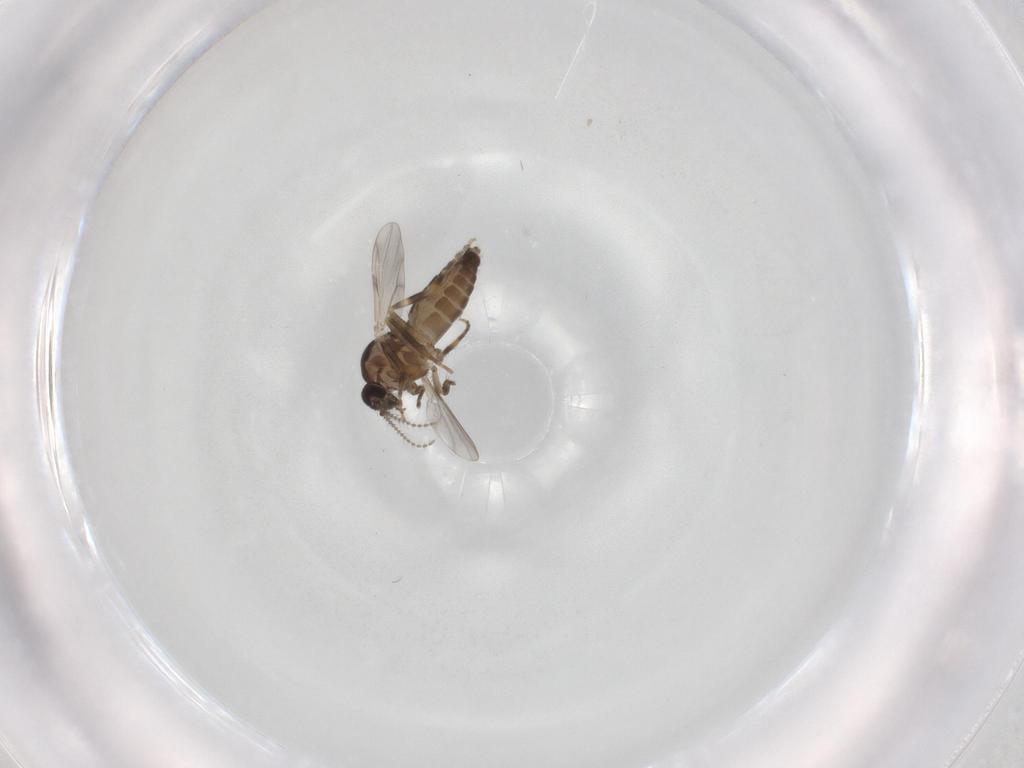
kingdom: Animalia
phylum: Arthropoda
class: Insecta
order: Diptera
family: Ceratopogonidae
